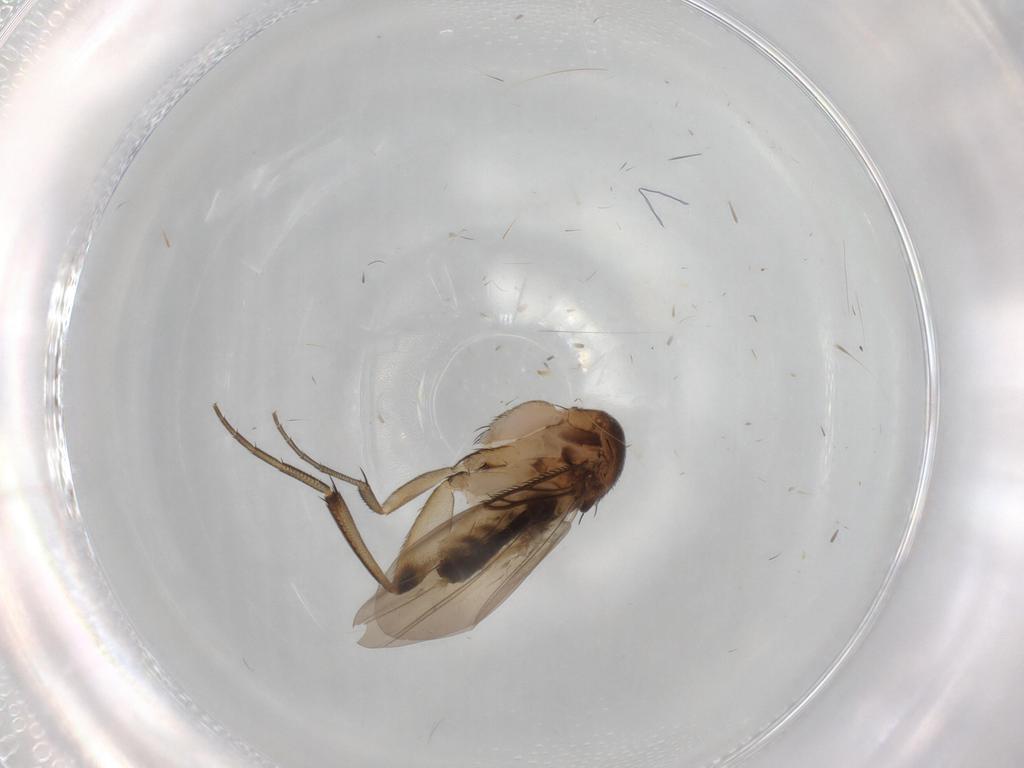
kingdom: Animalia
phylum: Arthropoda
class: Insecta
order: Diptera
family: Phoridae
